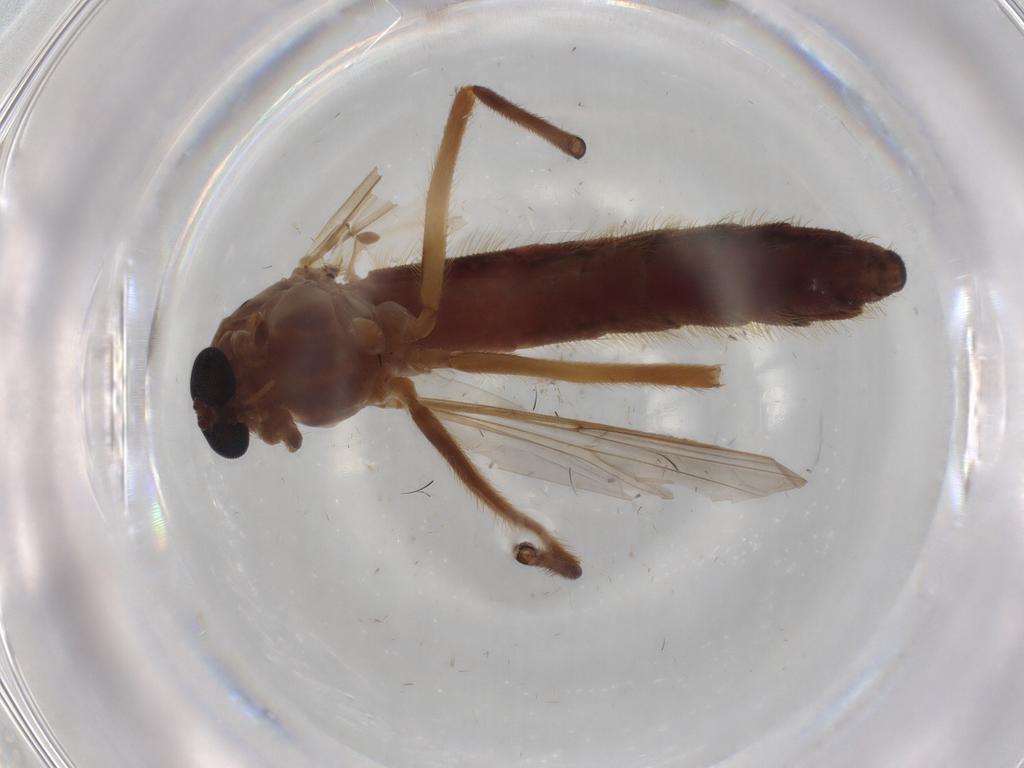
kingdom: Animalia
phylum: Arthropoda
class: Insecta
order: Diptera
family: Chironomidae
